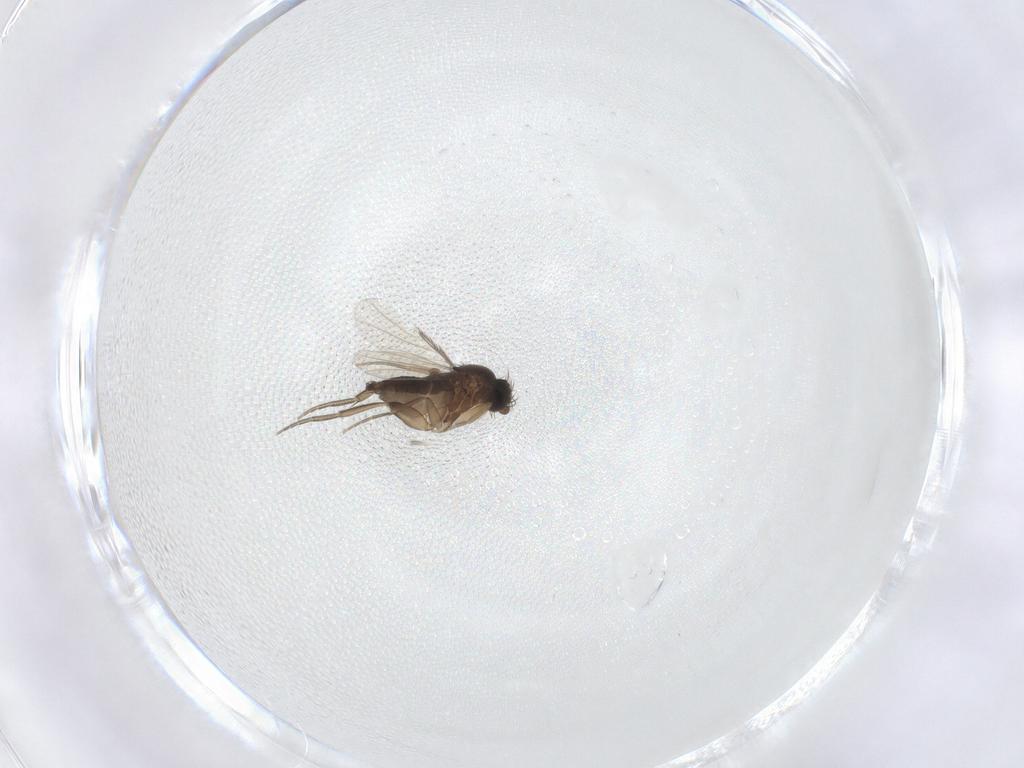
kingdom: Animalia
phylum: Arthropoda
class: Insecta
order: Diptera
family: Phoridae
